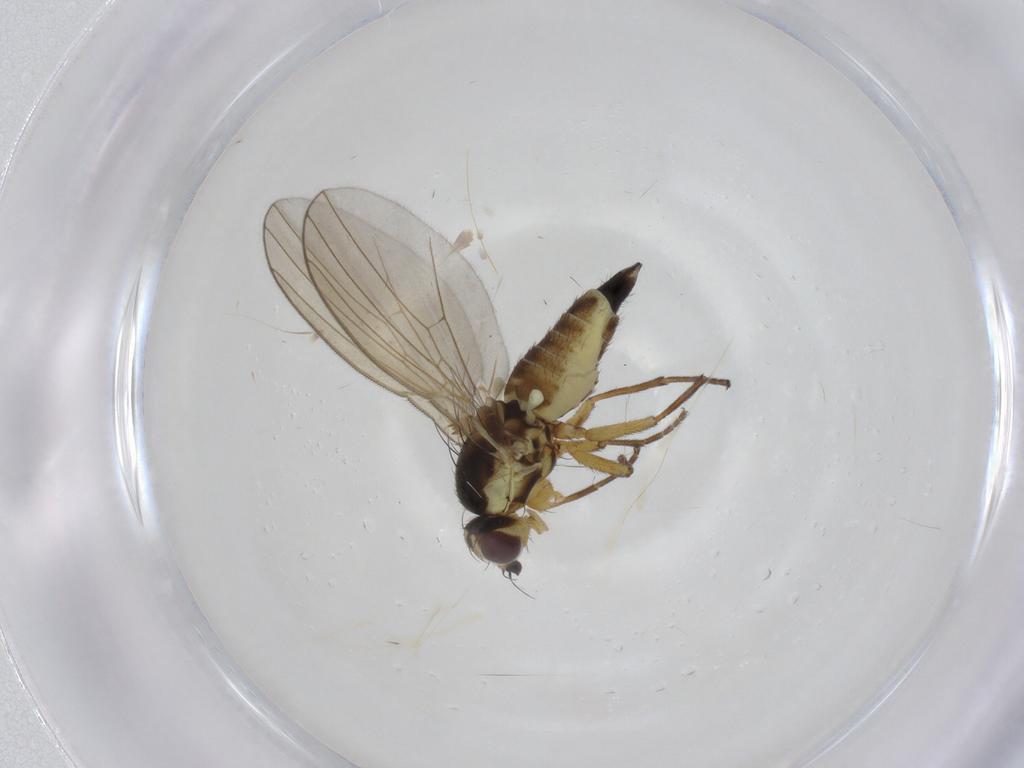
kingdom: Animalia
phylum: Arthropoda
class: Insecta
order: Diptera
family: Agromyzidae
